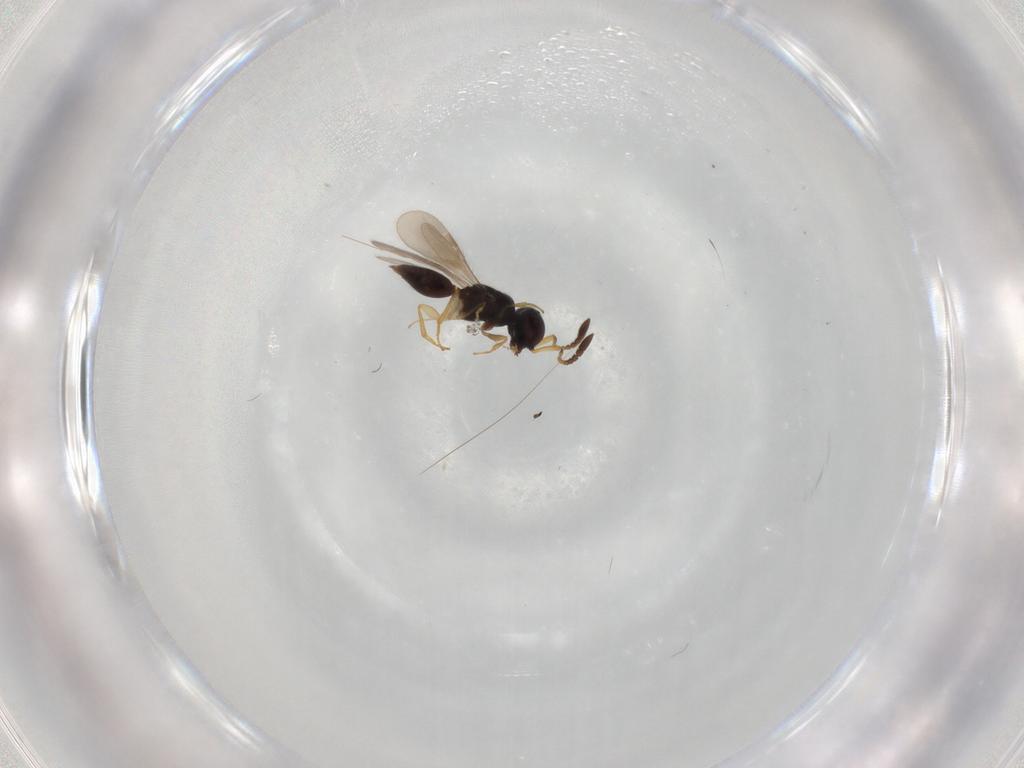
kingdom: Animalia
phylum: Arthropoda
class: Insecta
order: Hymenoptera
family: Megaspilidae
